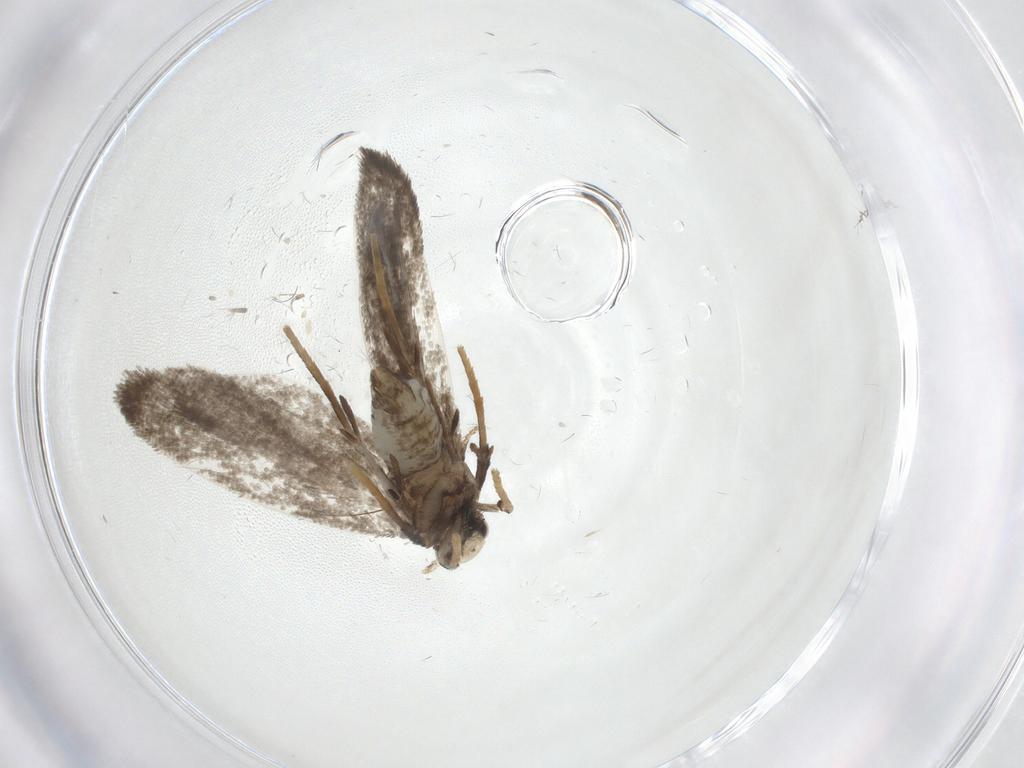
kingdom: Animalia
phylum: Arthropoda
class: Insecta
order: Lepidoptera
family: Psychidae
